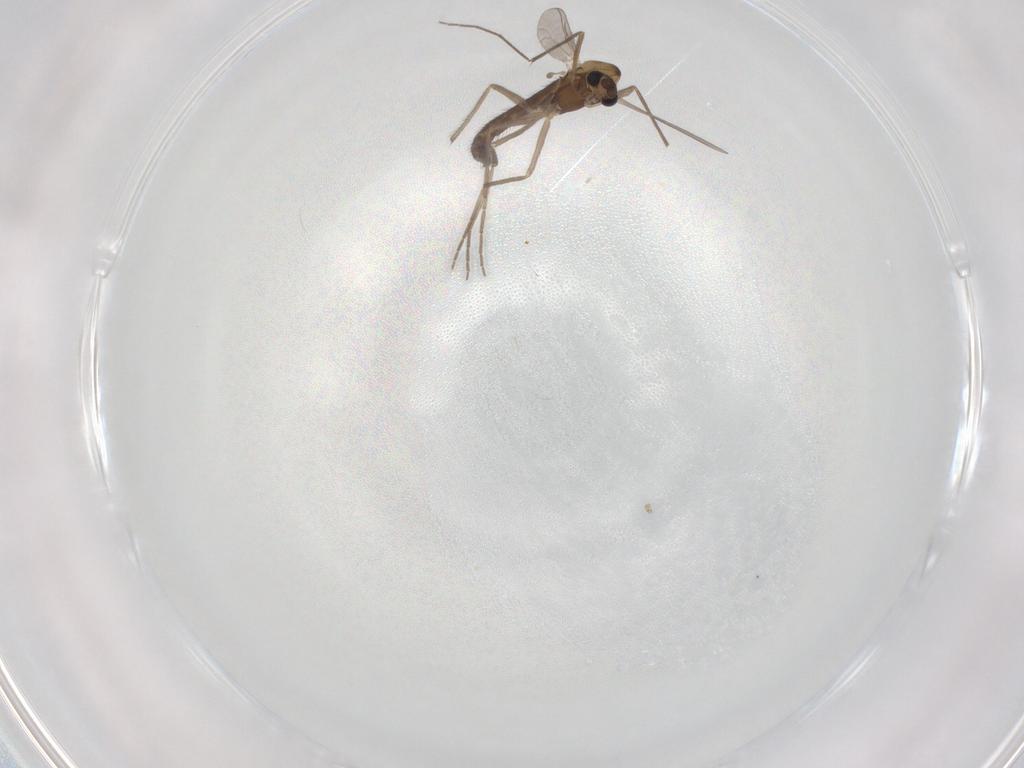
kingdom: Animalia
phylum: Arthropoda
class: Insecta
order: Diptera
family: Chironomidae
